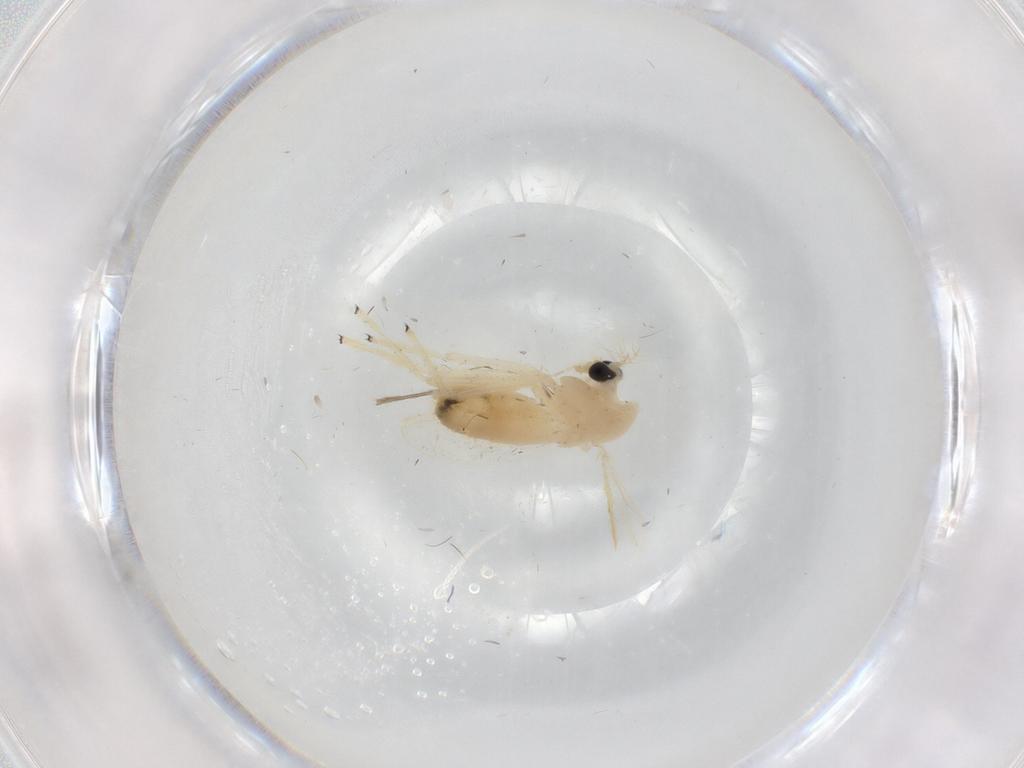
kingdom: Animalia
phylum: Arthropoda
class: Insecta
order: Diptera
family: Chironomidae
